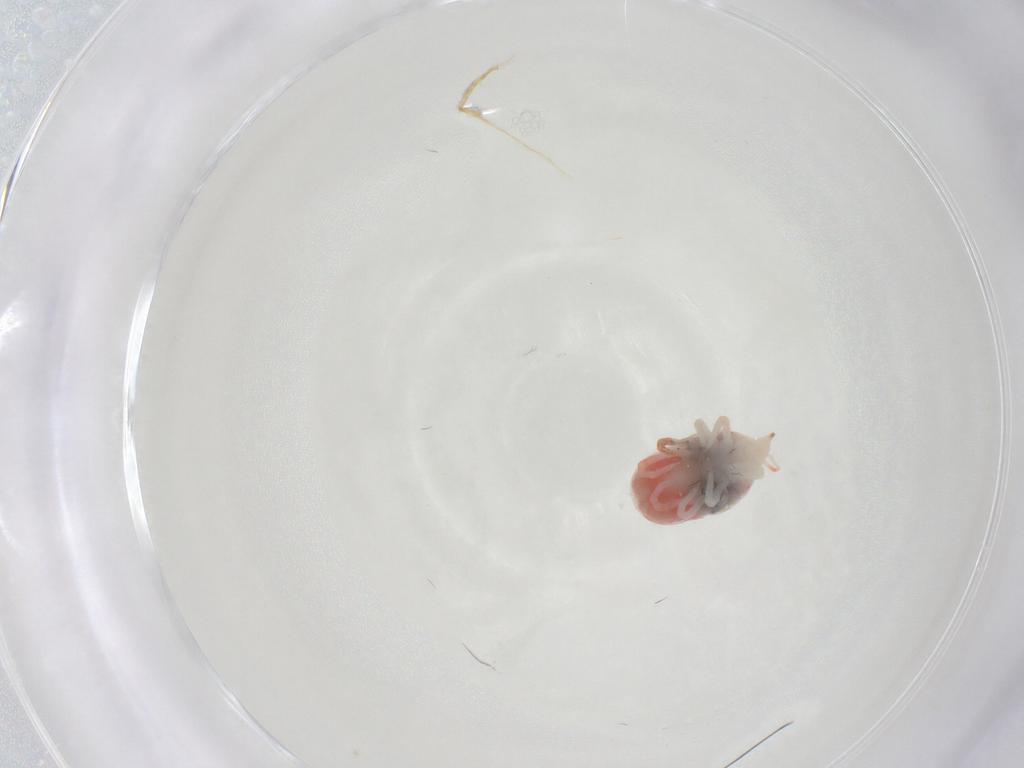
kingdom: Animalia
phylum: Arthropoda
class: Arachnida
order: Trombidiformes
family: Bdellidae
